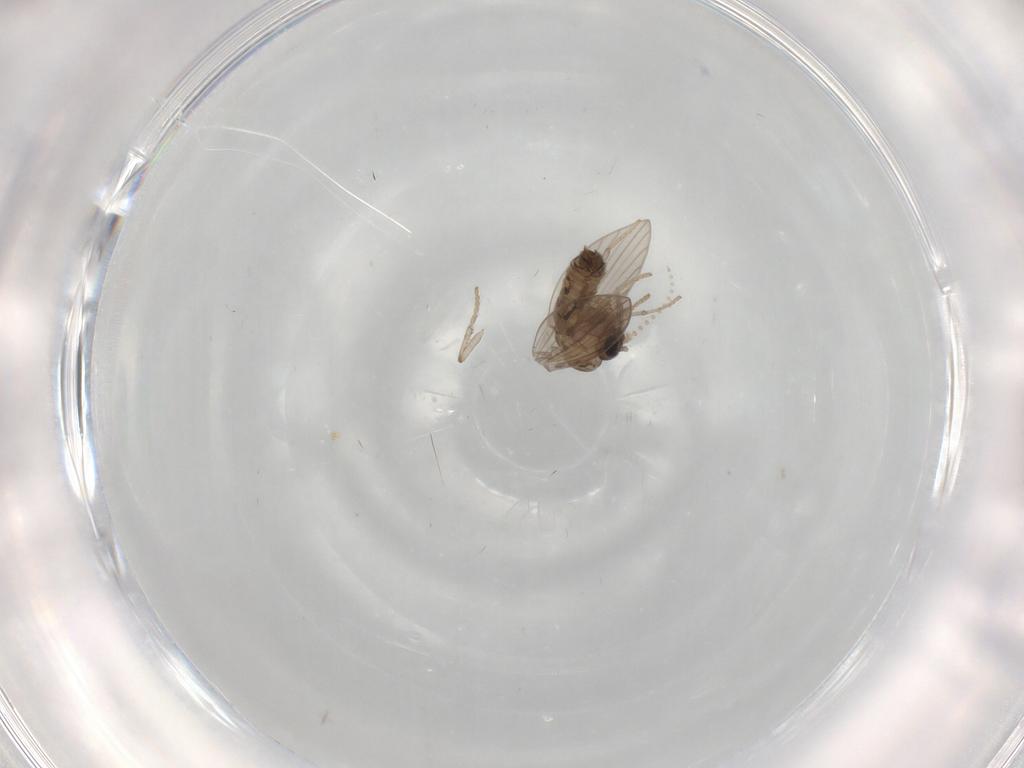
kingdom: Animalia
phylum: Arthropoda
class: Insecta
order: Diptera
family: Psychodidae
